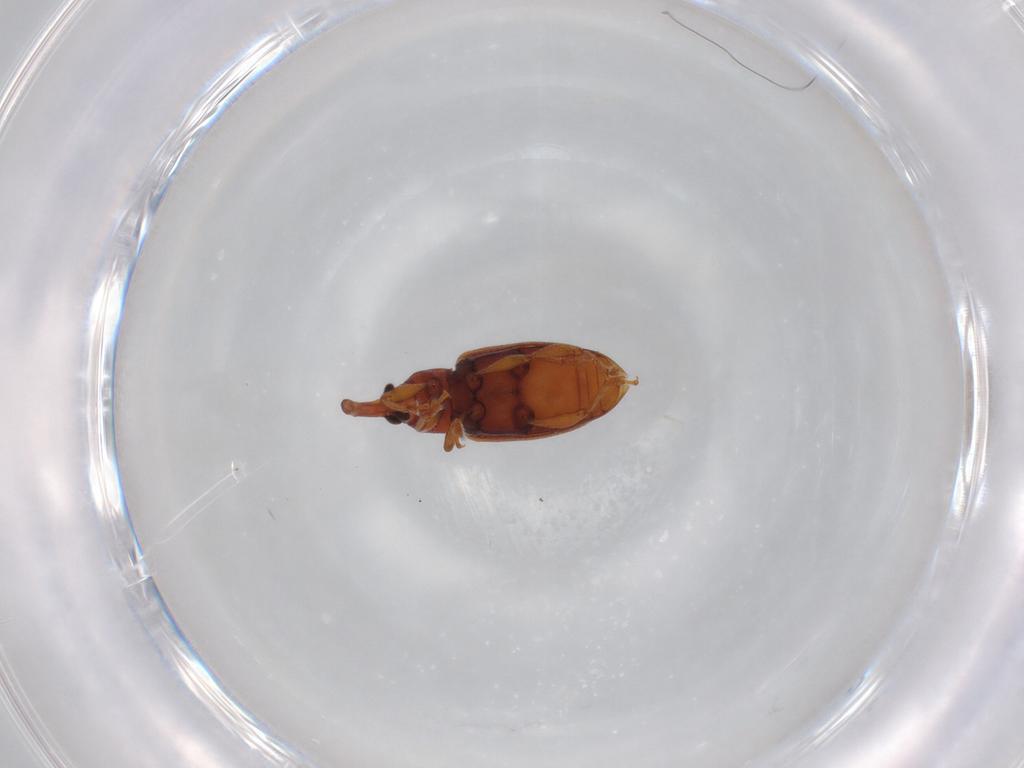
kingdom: Animalia
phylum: Arthropoda
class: Insecta
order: Coleoptera
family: Curculionidae
